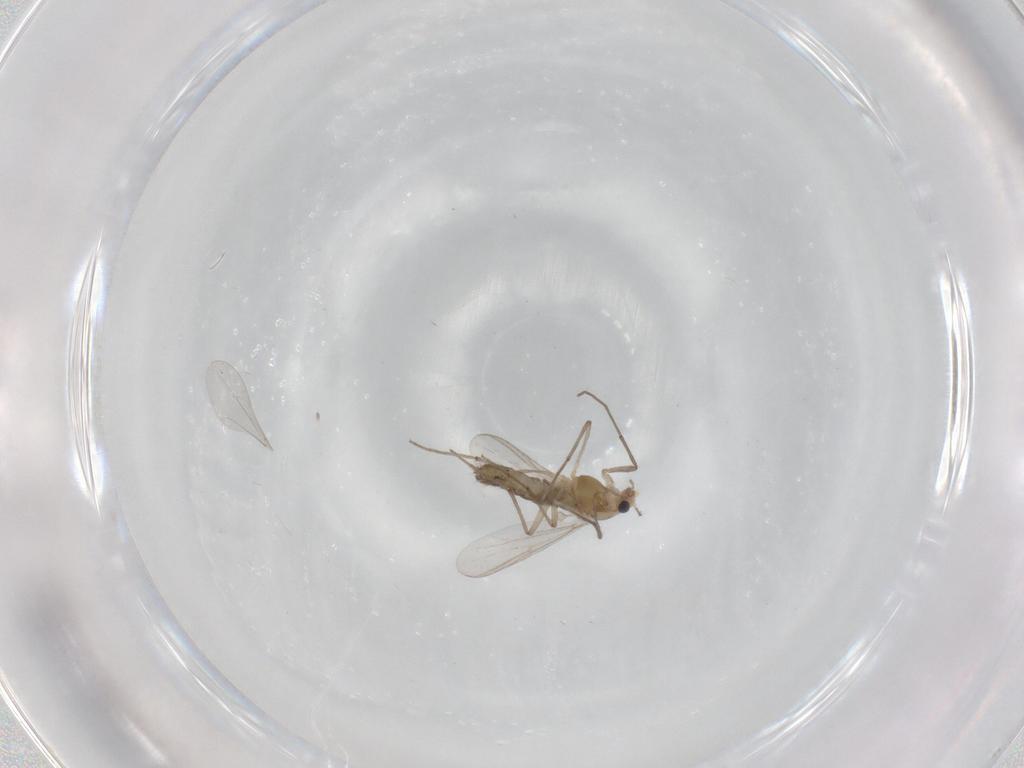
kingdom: Animalia
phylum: Arthropoda
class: Insecta
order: Diptera
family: Chironomidae
